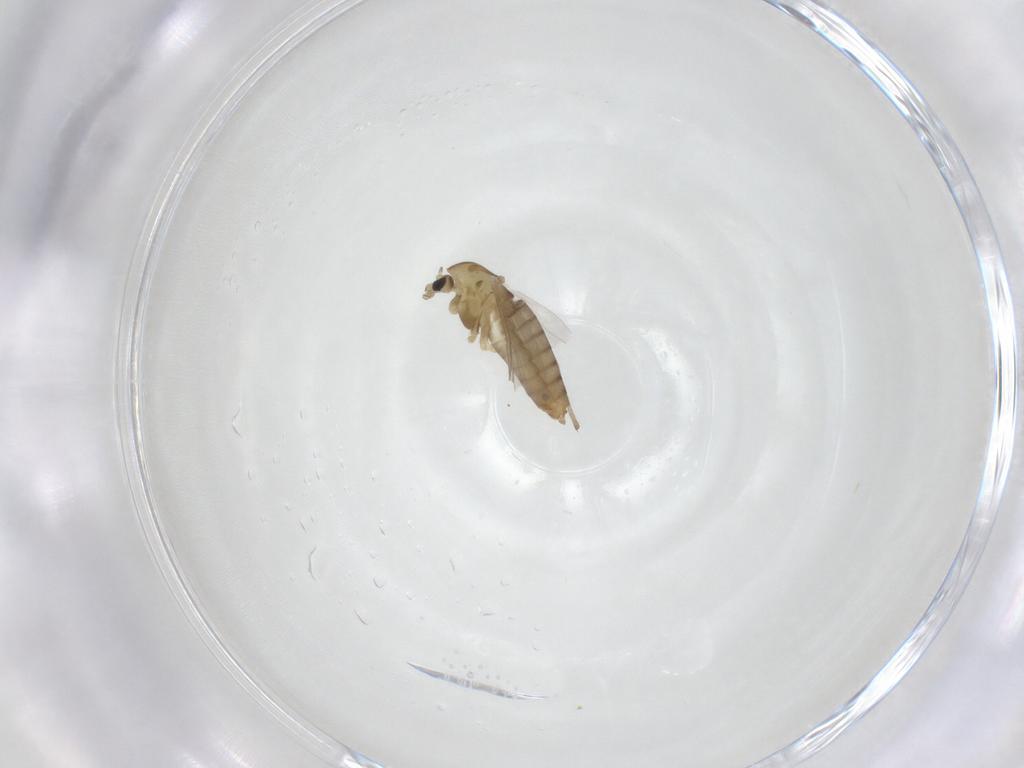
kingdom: Animalia
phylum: Arthropoda
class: Insecta
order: Diptera
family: Chironomidae
